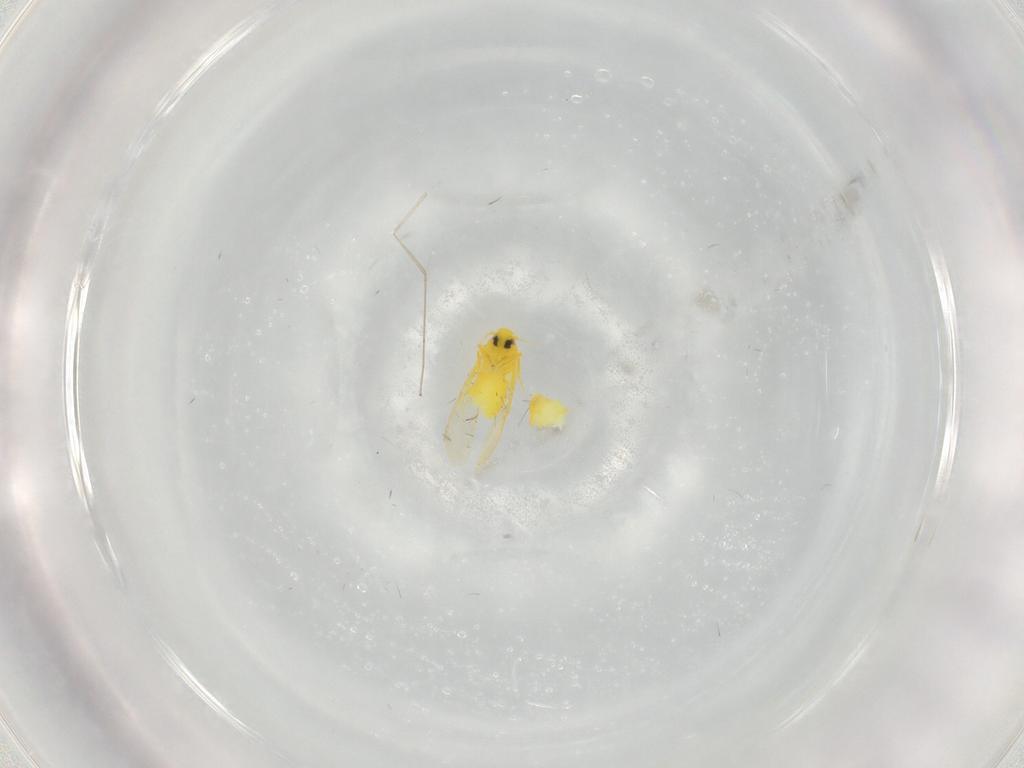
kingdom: Animalia
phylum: Arthropoda
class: Insecta
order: Hemiptera
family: Aleyrodidae
